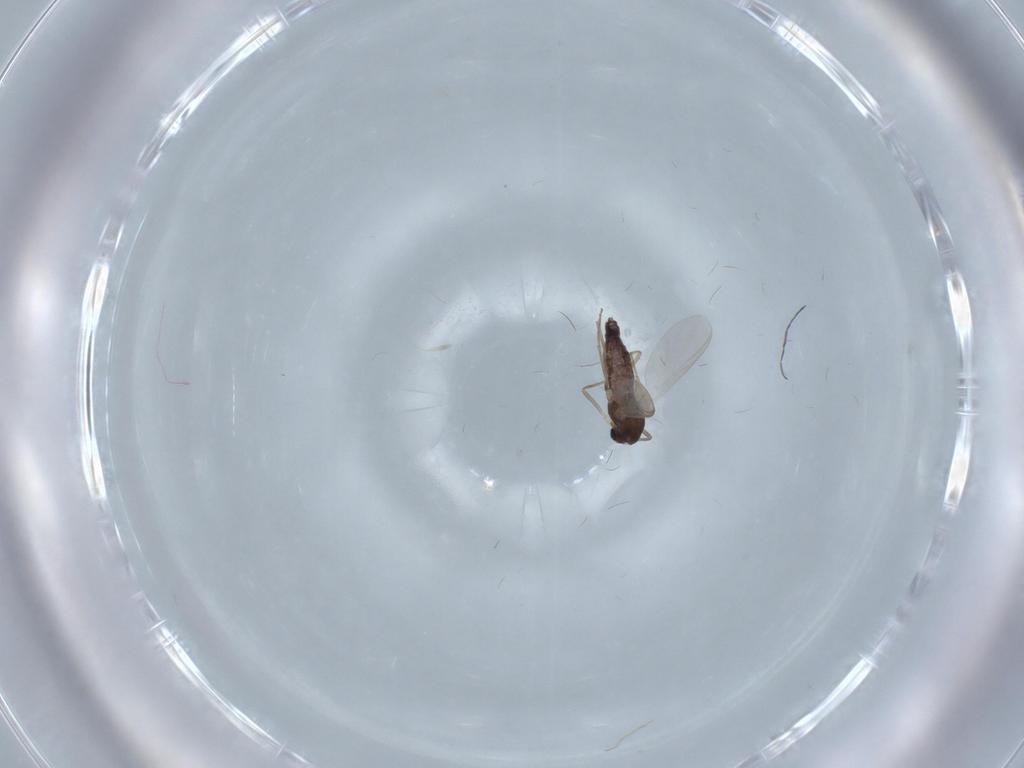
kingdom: Animalia
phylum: Arthropoda
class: Insecta
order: Diptera
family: Chironomidae
